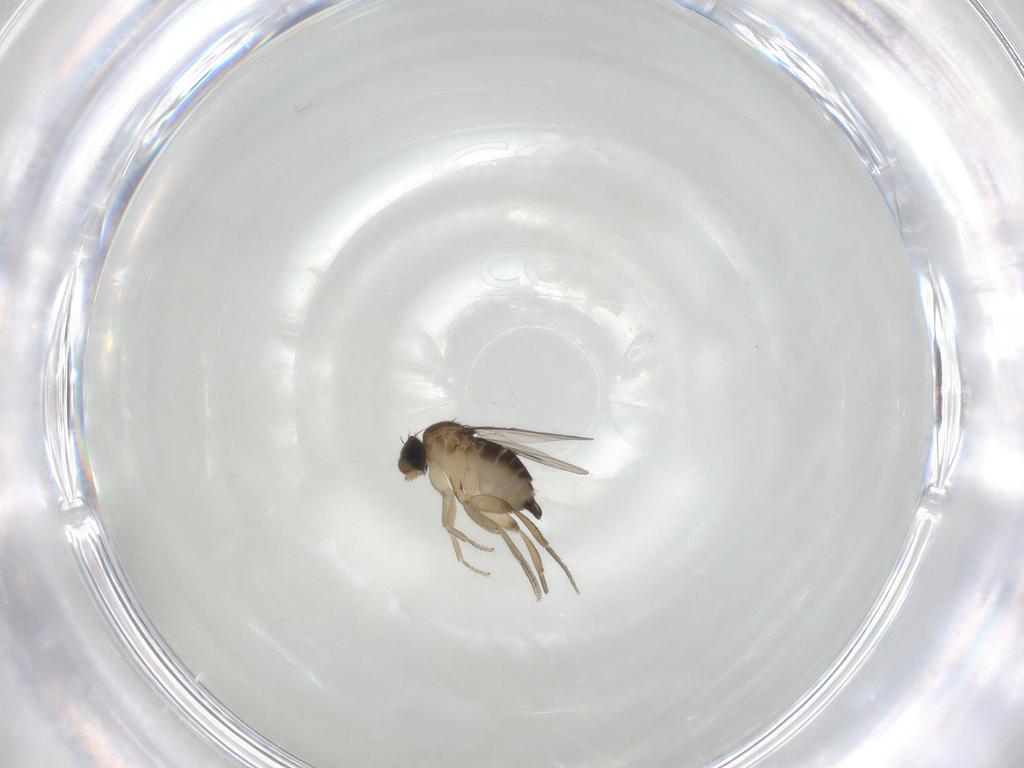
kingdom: Animalia
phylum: Arthropoda
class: Insecta
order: Diptera
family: Phoridae
